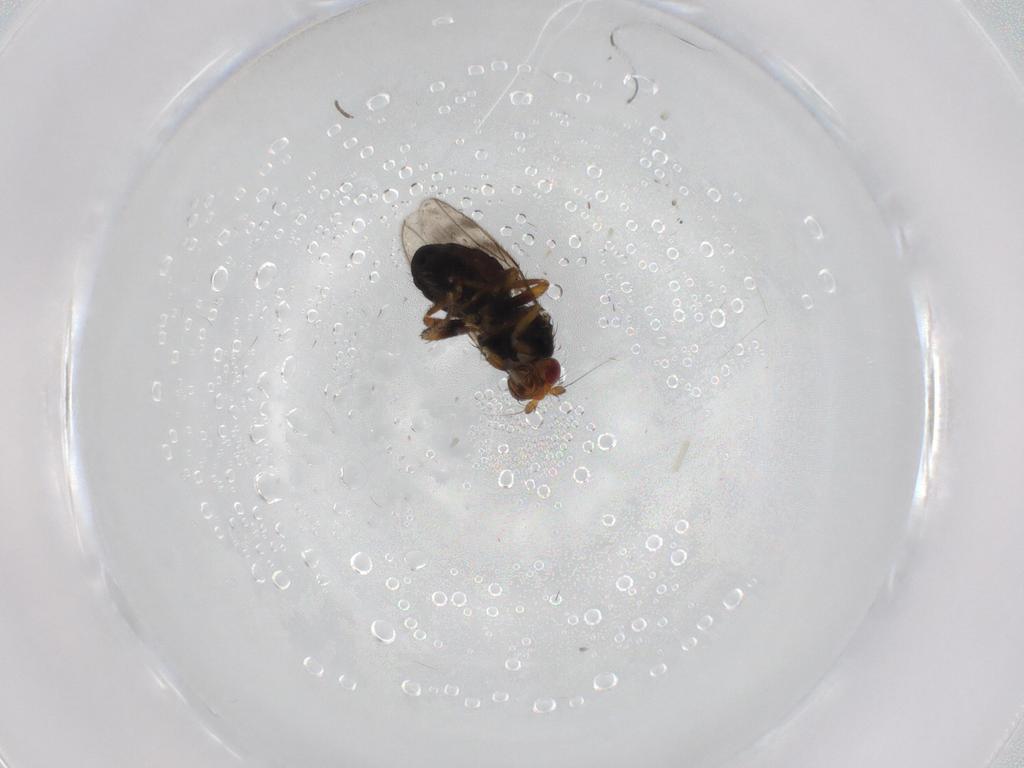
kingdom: Animalia
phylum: Arthropoda
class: Insecta
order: Diptera
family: Sphaeroceridae
